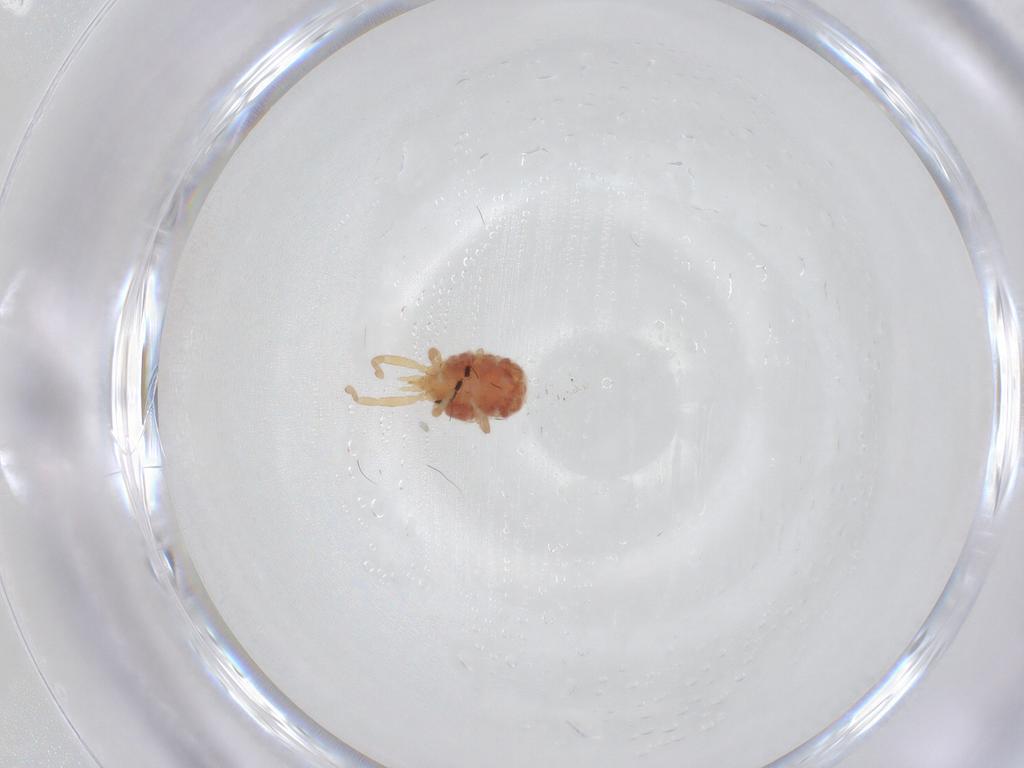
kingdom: Animalia
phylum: Arthropoda
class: Arachnida
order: Trombidiformes
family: Erythraeidae
